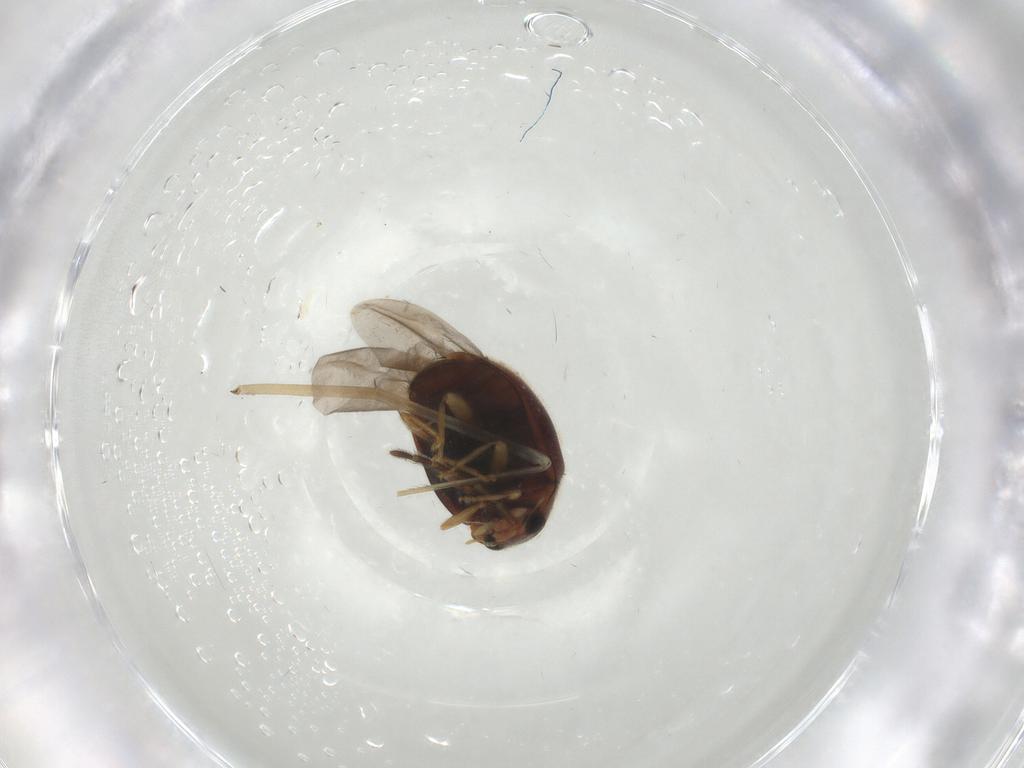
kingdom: Animalia
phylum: Arthropoda
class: Insecta
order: Coleoptera
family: Coccinellidae
